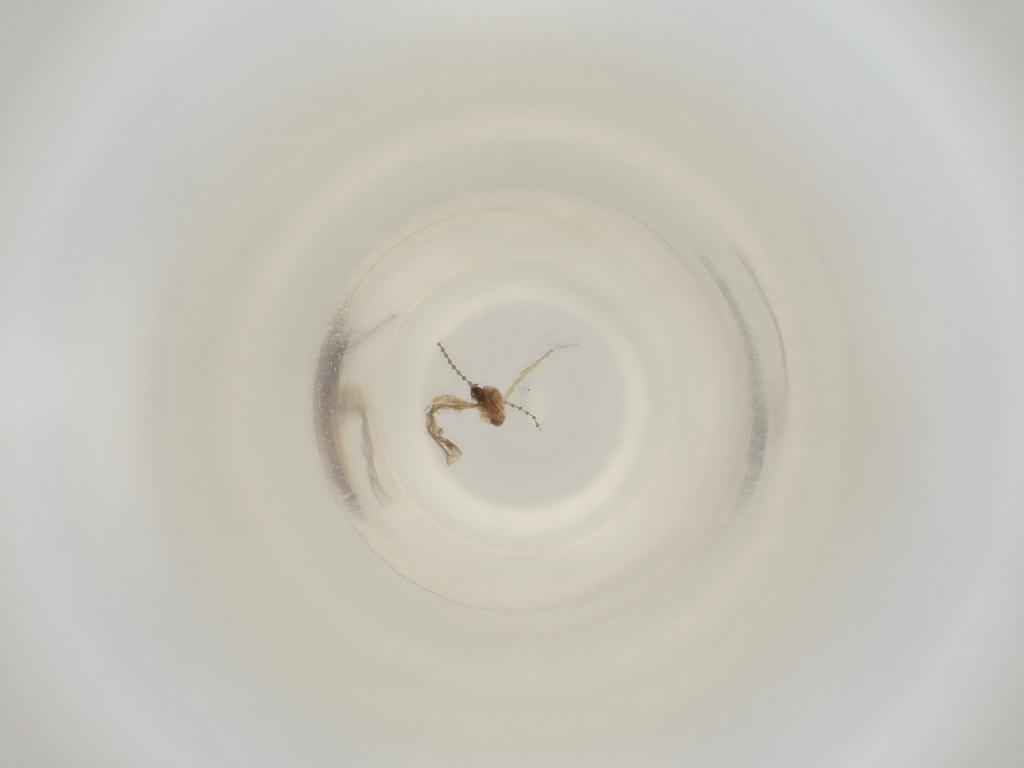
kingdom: Animalia
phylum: Arthropoda
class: Insecta
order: Diptera
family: Cecidomyiidae
